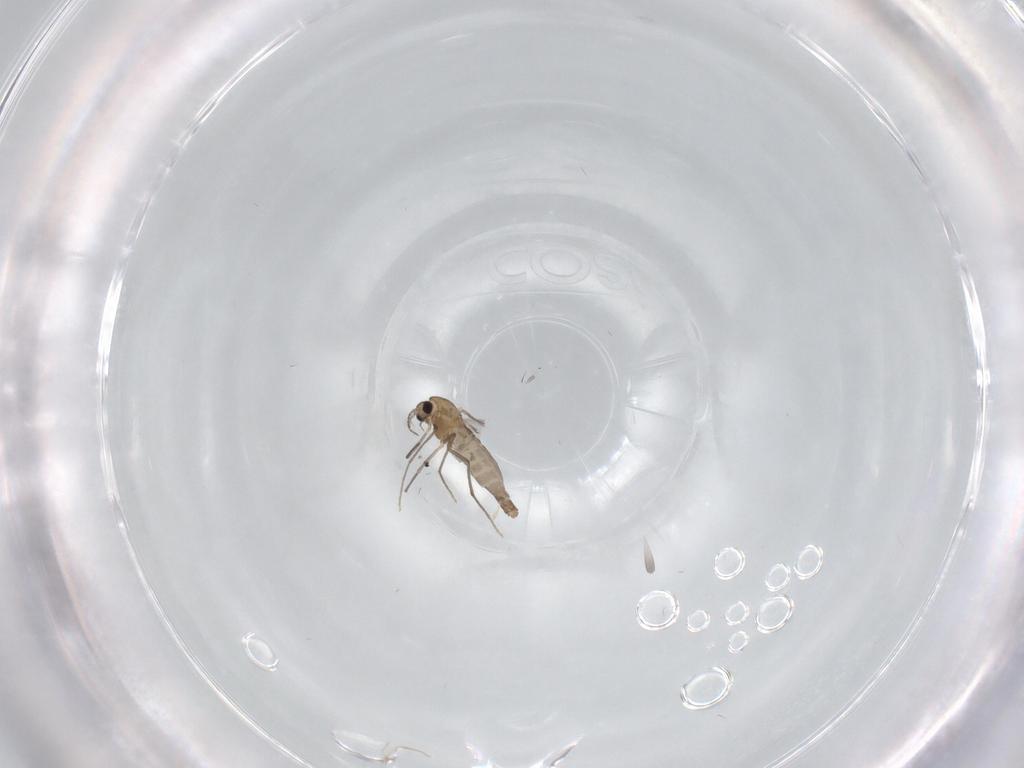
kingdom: Animalia
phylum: Arthropoda
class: Insecta
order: Diptera
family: Chironomidae
